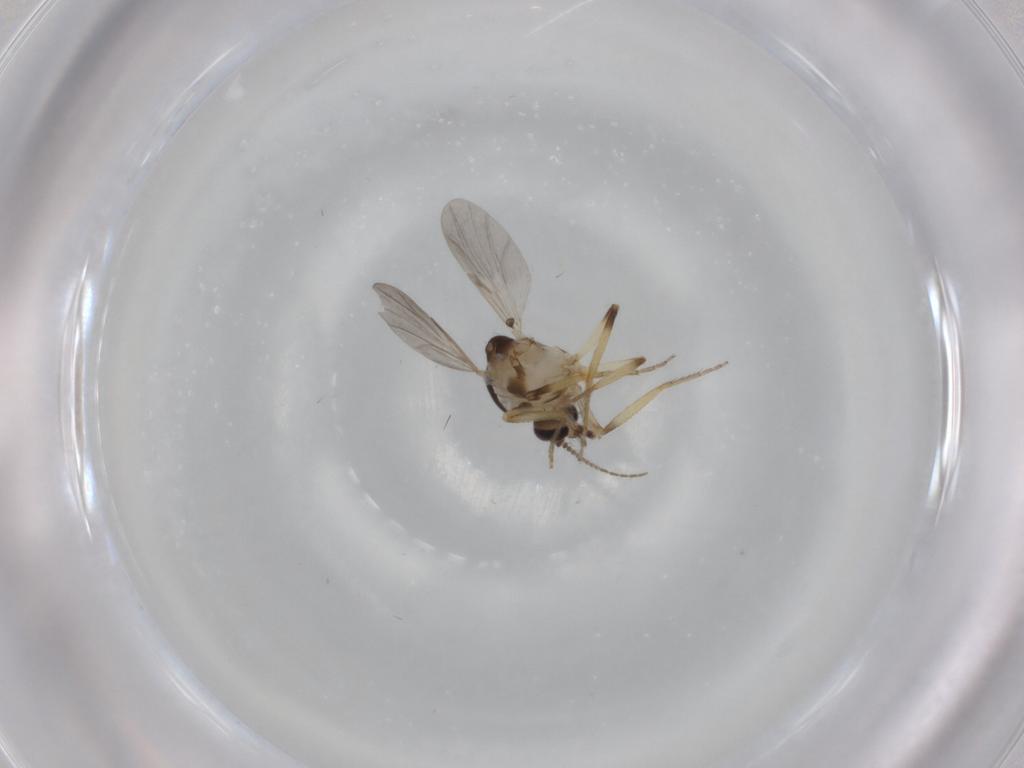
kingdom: Animalia
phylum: Arthropoda
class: Insecta
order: Diptera
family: Ceratopogonidae
